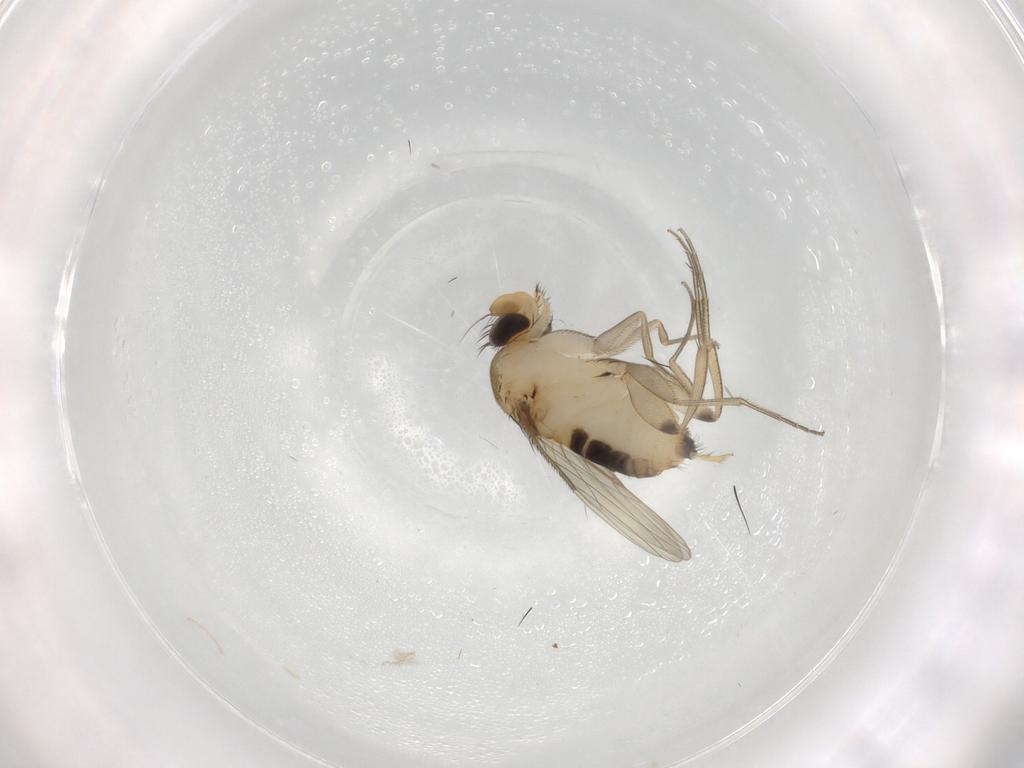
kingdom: Animalia
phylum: Arthropoda
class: Insecta
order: Diptera
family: Phoridae
